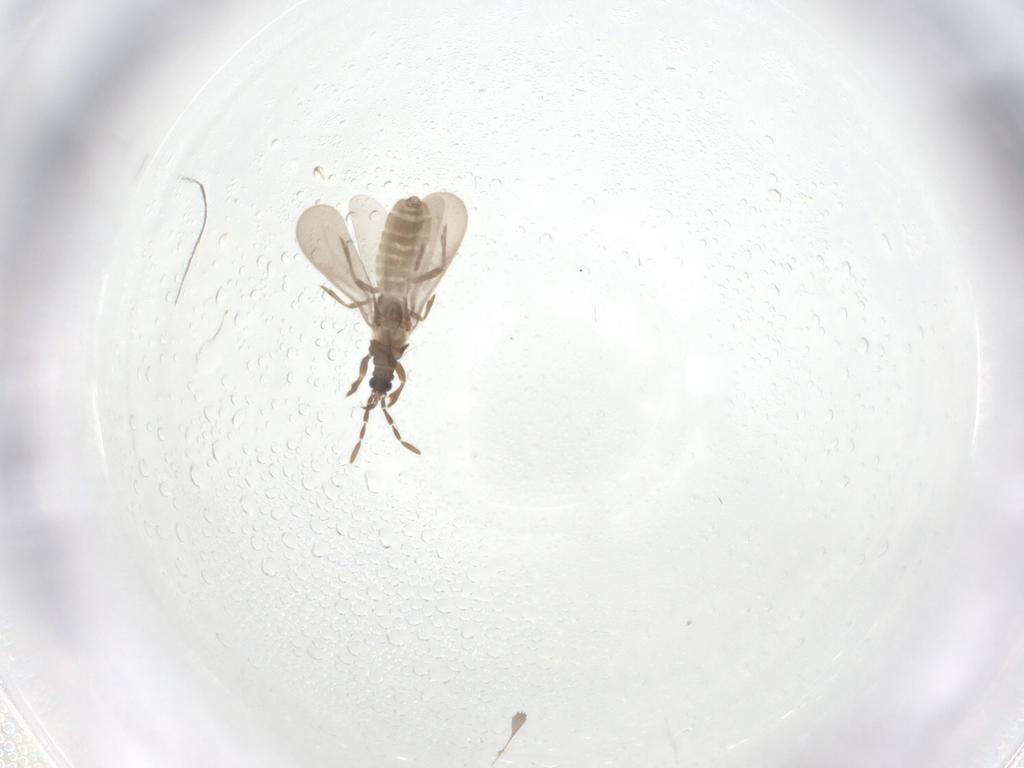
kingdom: Animalia
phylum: Arthropoda
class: Insecta
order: Hemiptera
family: Enicocephalidae
